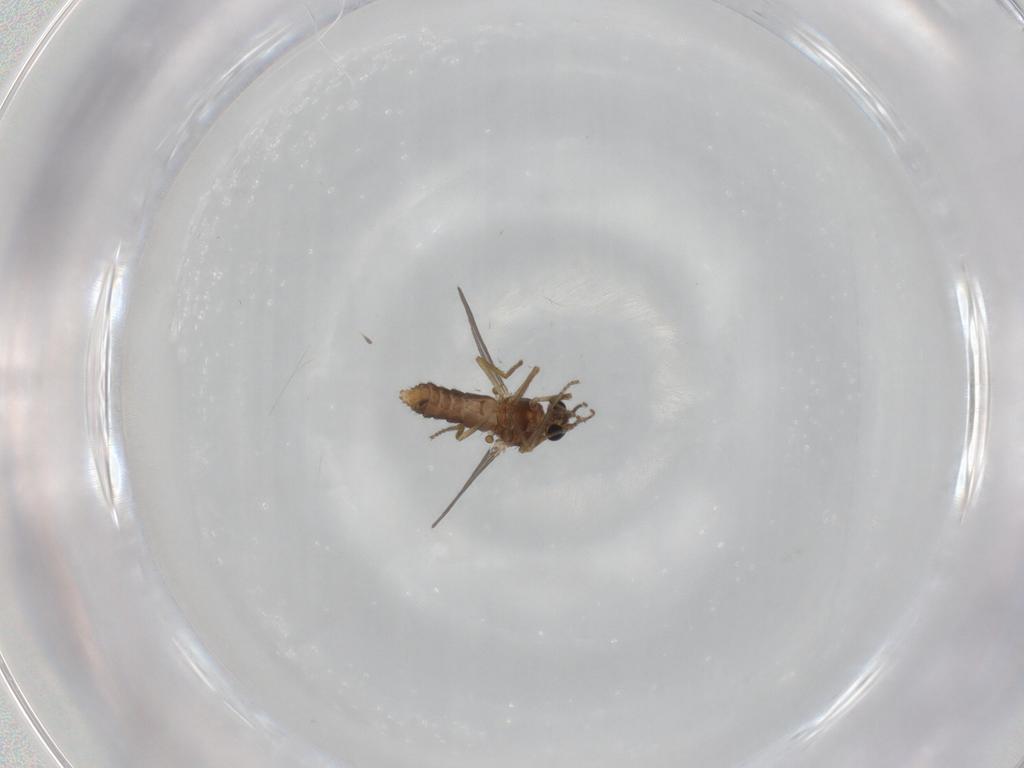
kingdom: Animalia
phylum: Arthropoda
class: Insecta
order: Diptera
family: Ceratopogonidae
